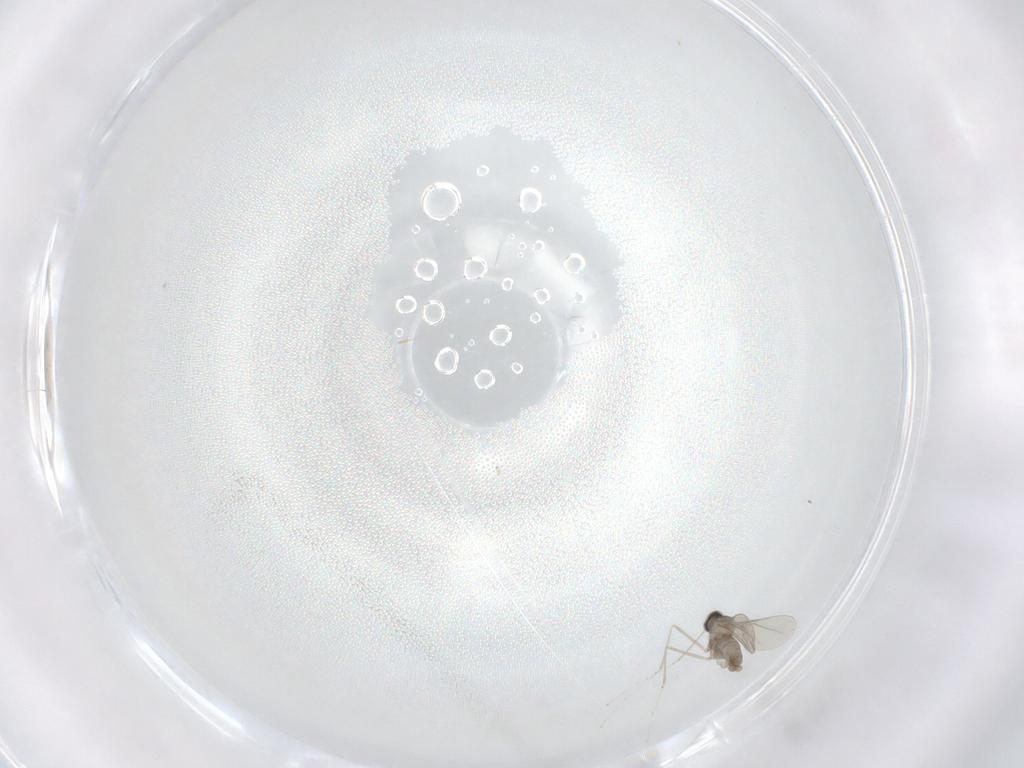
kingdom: Animalia
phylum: Arthropoda
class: Insecta
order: Diptera
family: Cecidomyiidae
